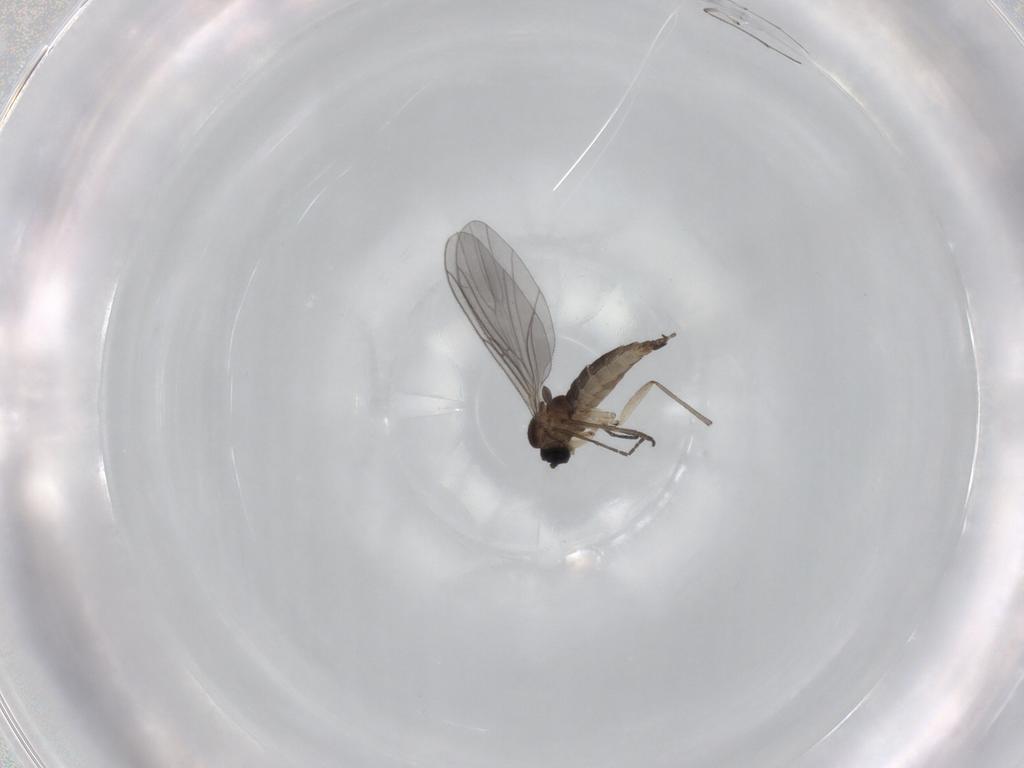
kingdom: Animalia
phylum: Arthropoda
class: Insecta
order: Diptera
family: Sciaridae
